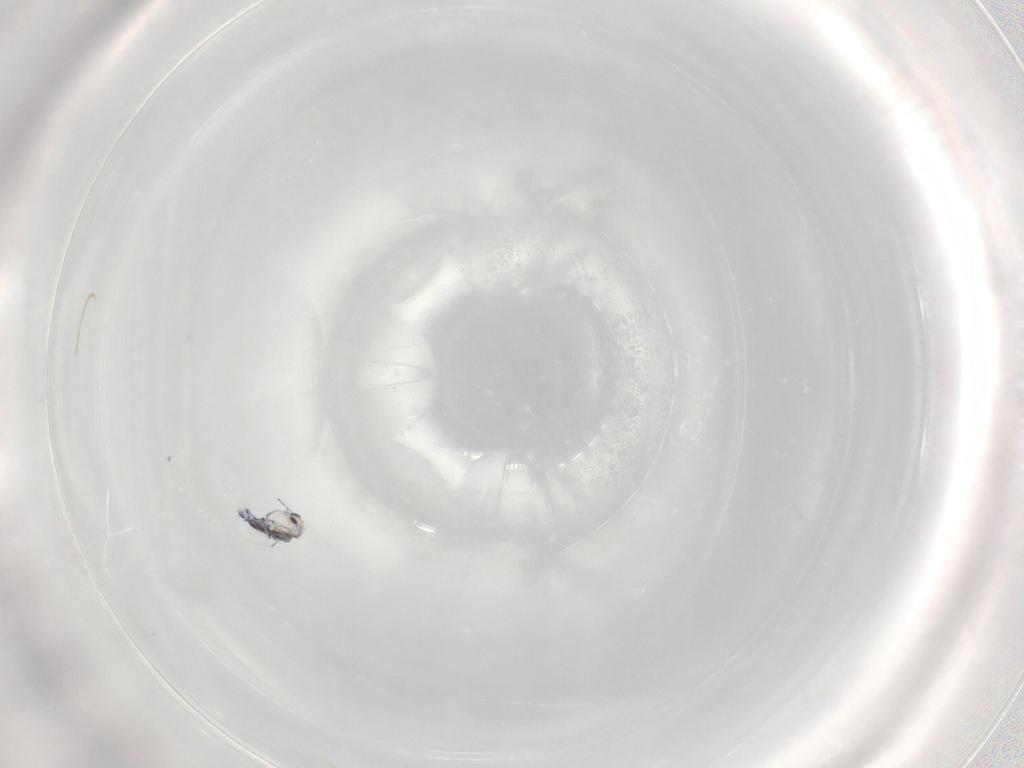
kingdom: Animalia
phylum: Arthropoda
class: Collembola
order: Entomobryomorpha
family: Entomobryidae
